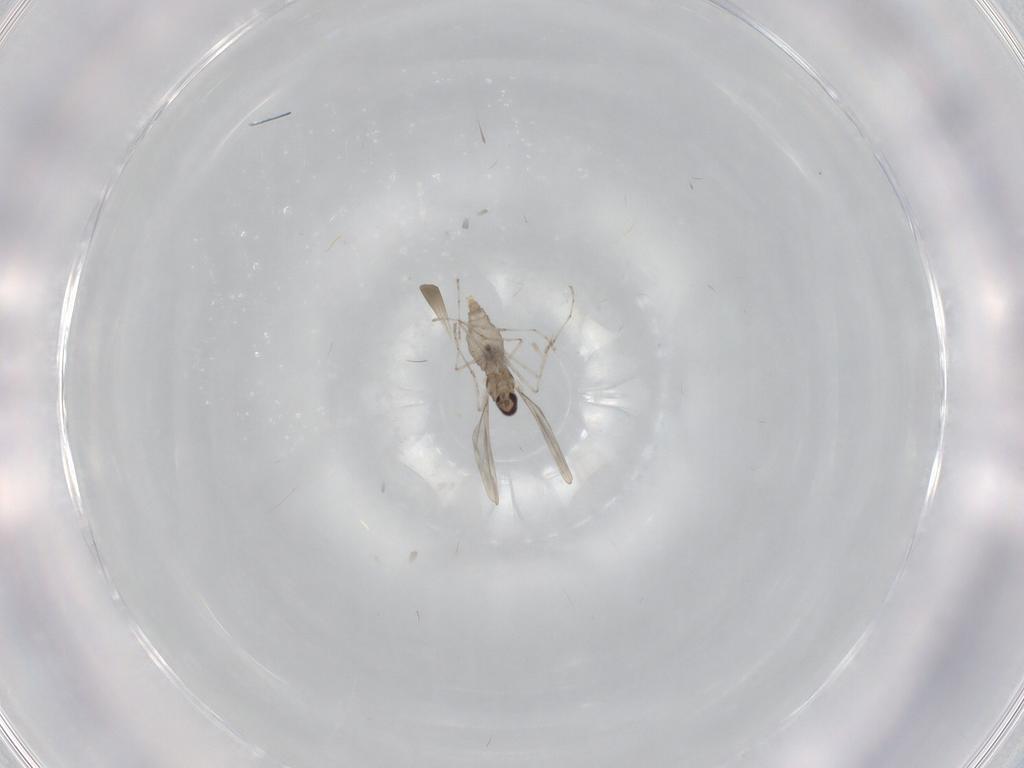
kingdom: Animalia
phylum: Arthropoda
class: Insecta
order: Diptera
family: Cecidomyiidae
